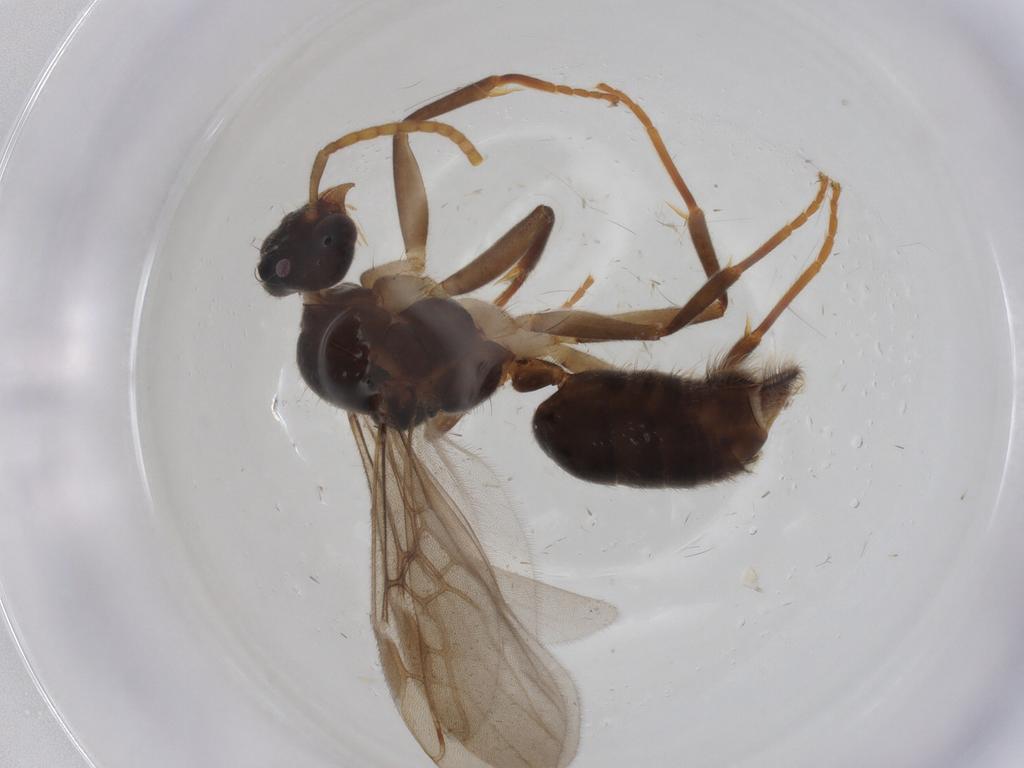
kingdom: Animalia
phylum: Arthropoda
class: Insecta
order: Hymenoptera
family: Formicidae
